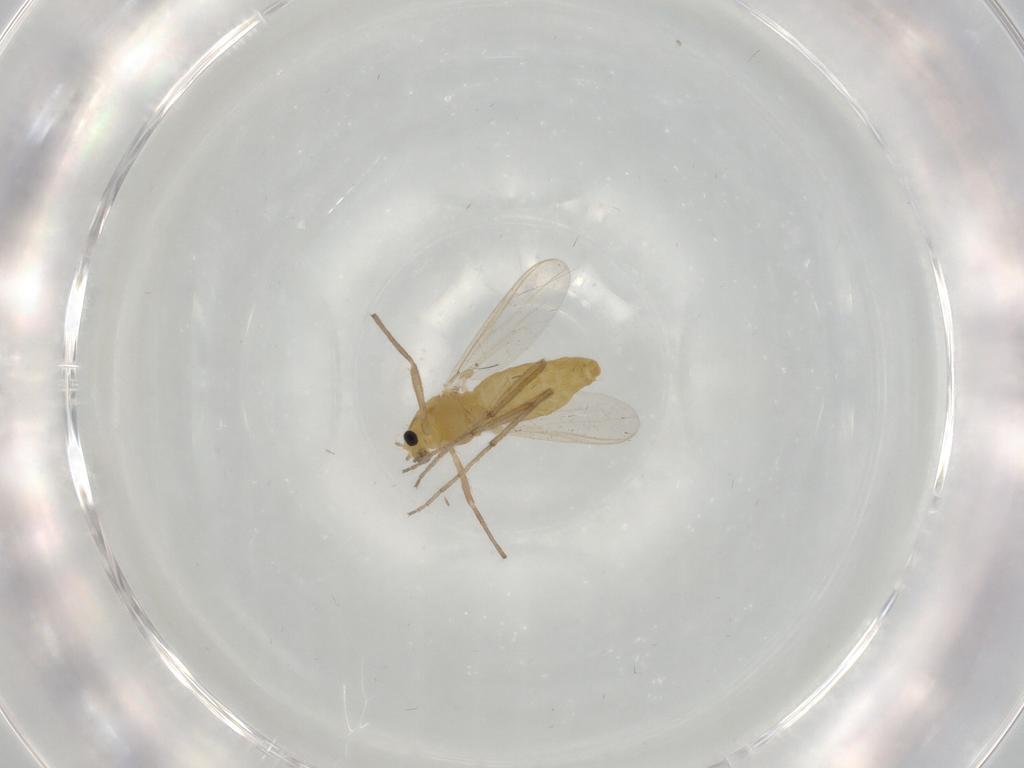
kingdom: Animalia
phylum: Arthropoda
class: Insecta
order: Diptera
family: Chironomidae
